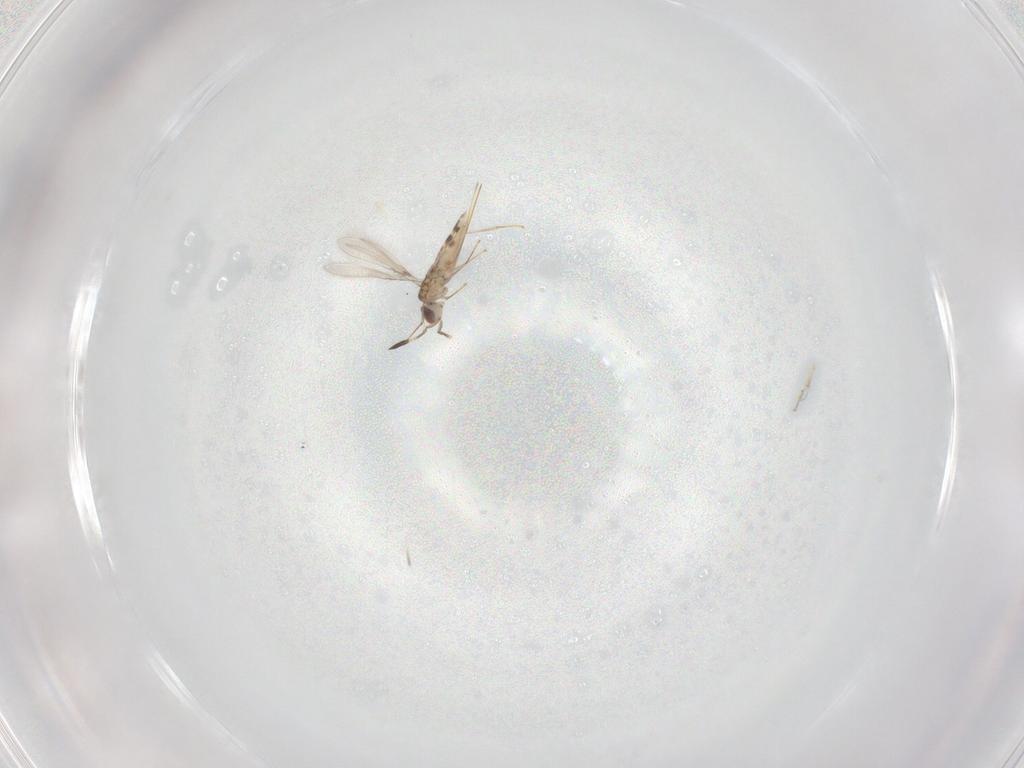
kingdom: Animalia
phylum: Arthropoda
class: Insecta
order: Hymenoptera
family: Mymaridae
